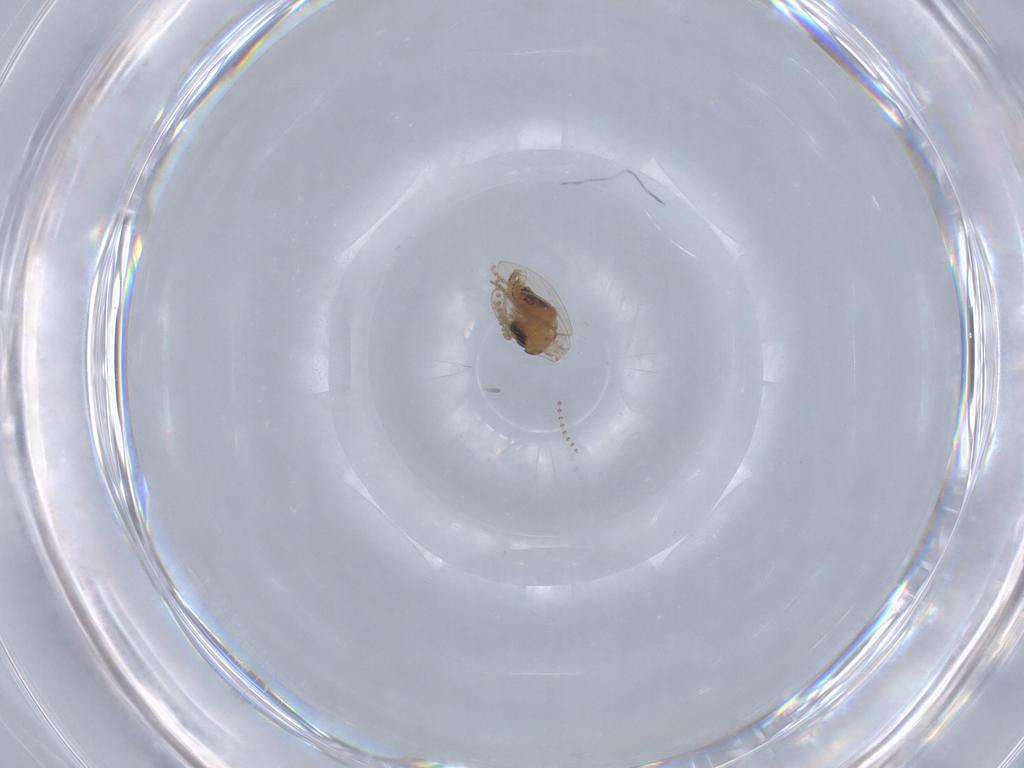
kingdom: Animalia
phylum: Arthropoda
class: Insecta
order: Diptera
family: Psychodidae
